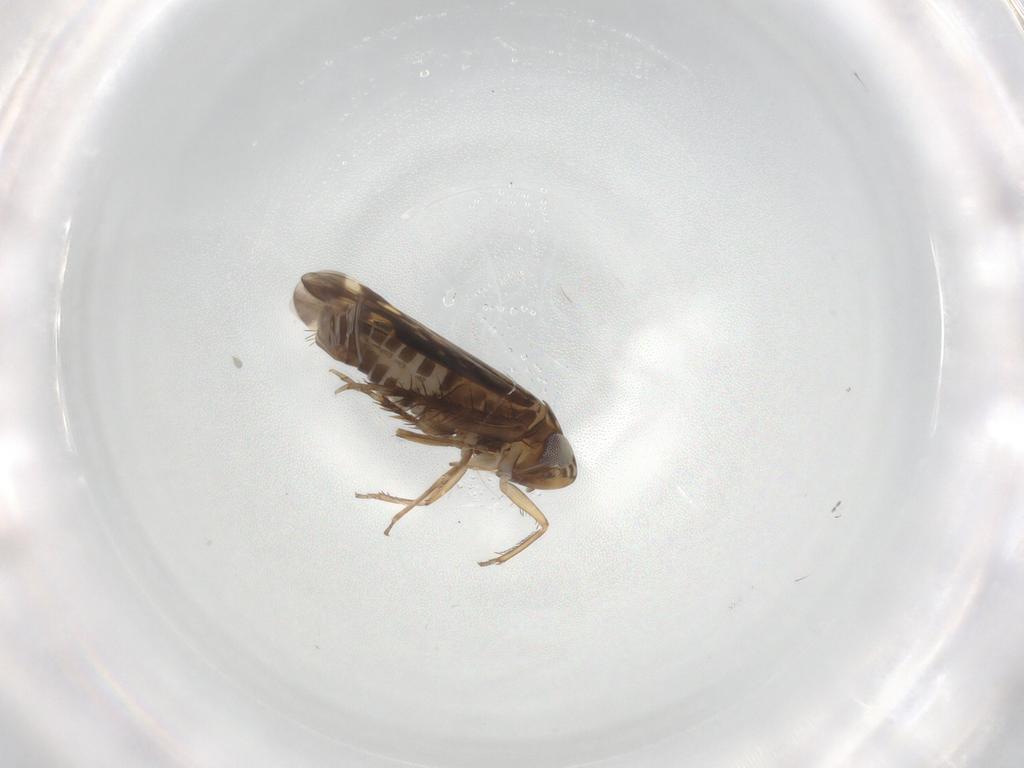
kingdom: Animalia
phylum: Arthropoda
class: Insecta
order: Hemiptera
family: Cicadellidae
